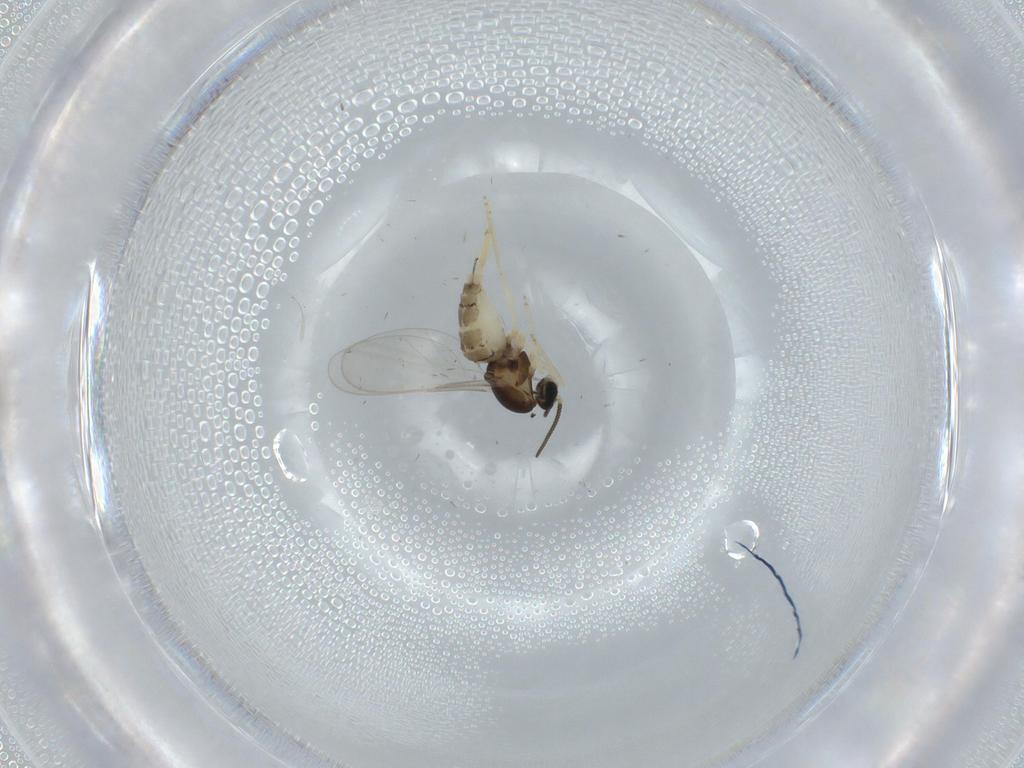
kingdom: Animalia
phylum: Arthropoda
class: Insecta
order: Diptera
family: Cecidomyiidae
